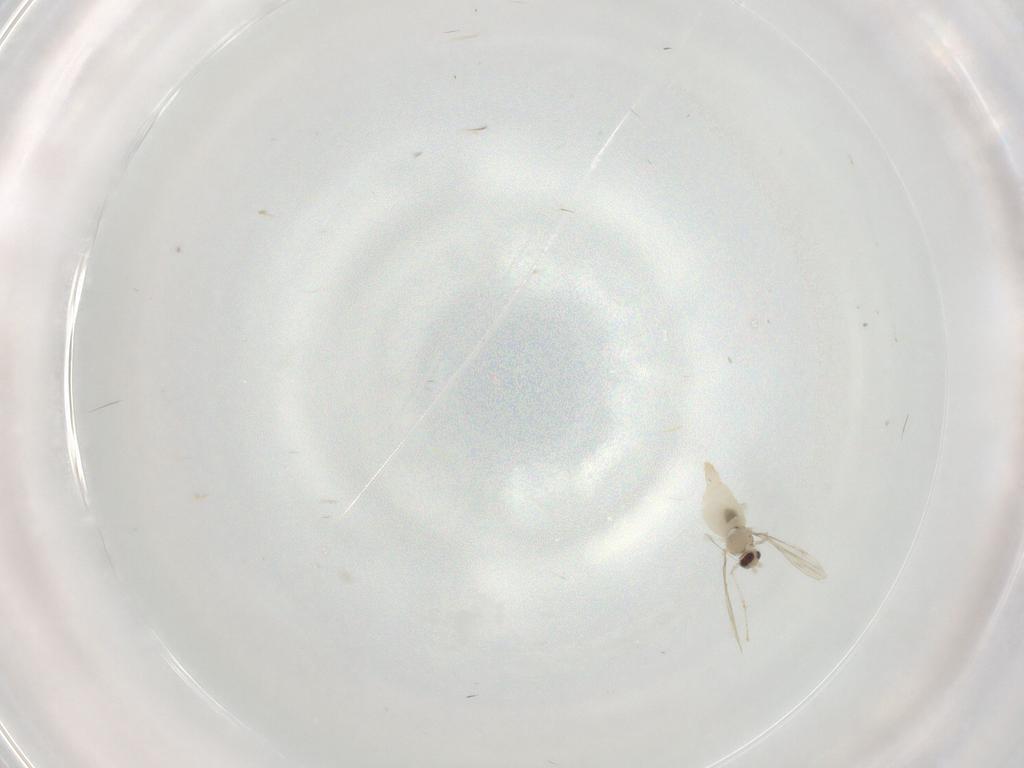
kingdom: Animalia
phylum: Arthropoda
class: Insecta
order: Diptera
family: Cecidomyiidae
